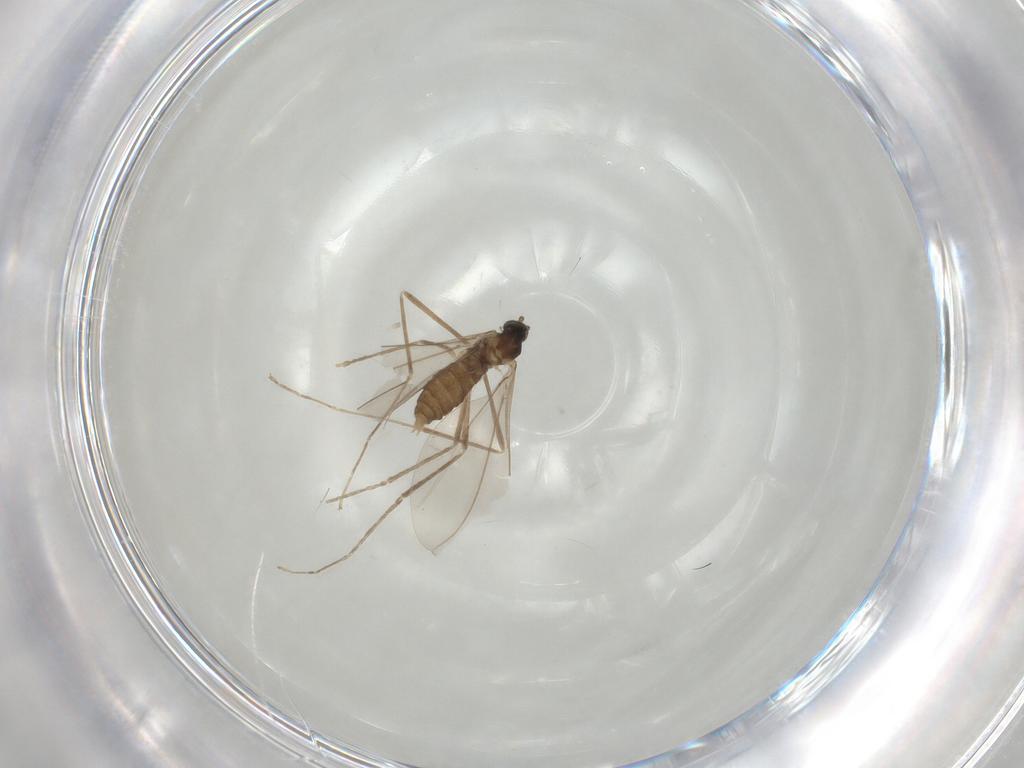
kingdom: Animalia
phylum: Arthropoda
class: Insecta
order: Diptera
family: Cecidomyiidae
